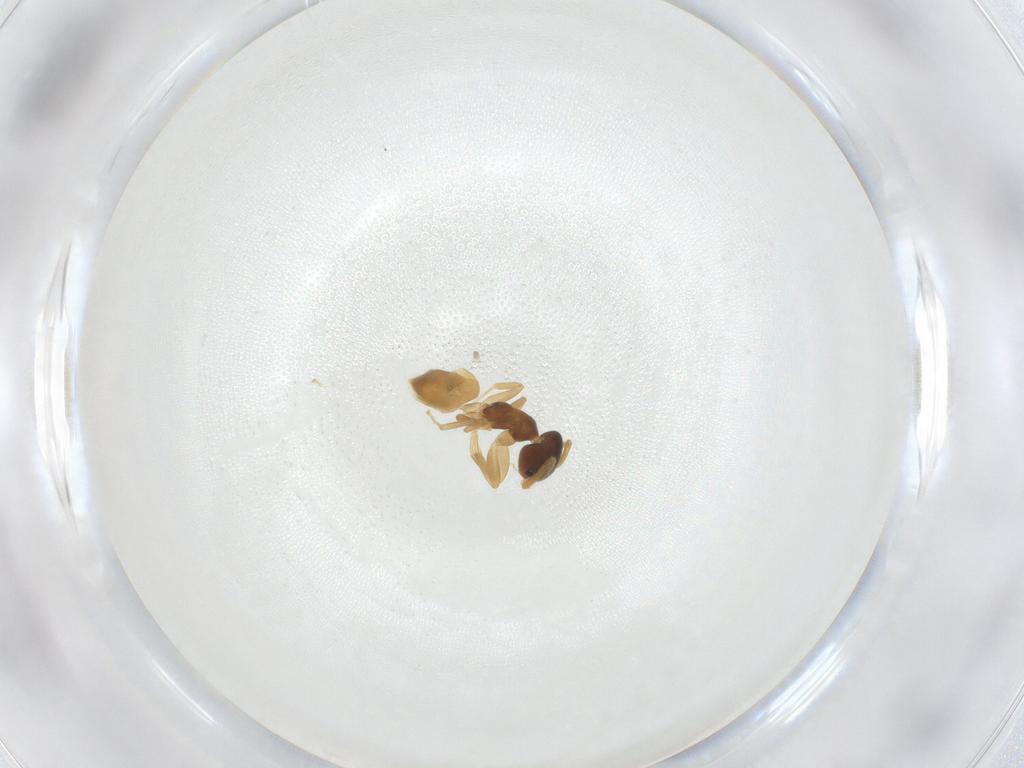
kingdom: Animalia
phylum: Arthropoda
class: Insecta
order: Hymenoptera
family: Formicidae
